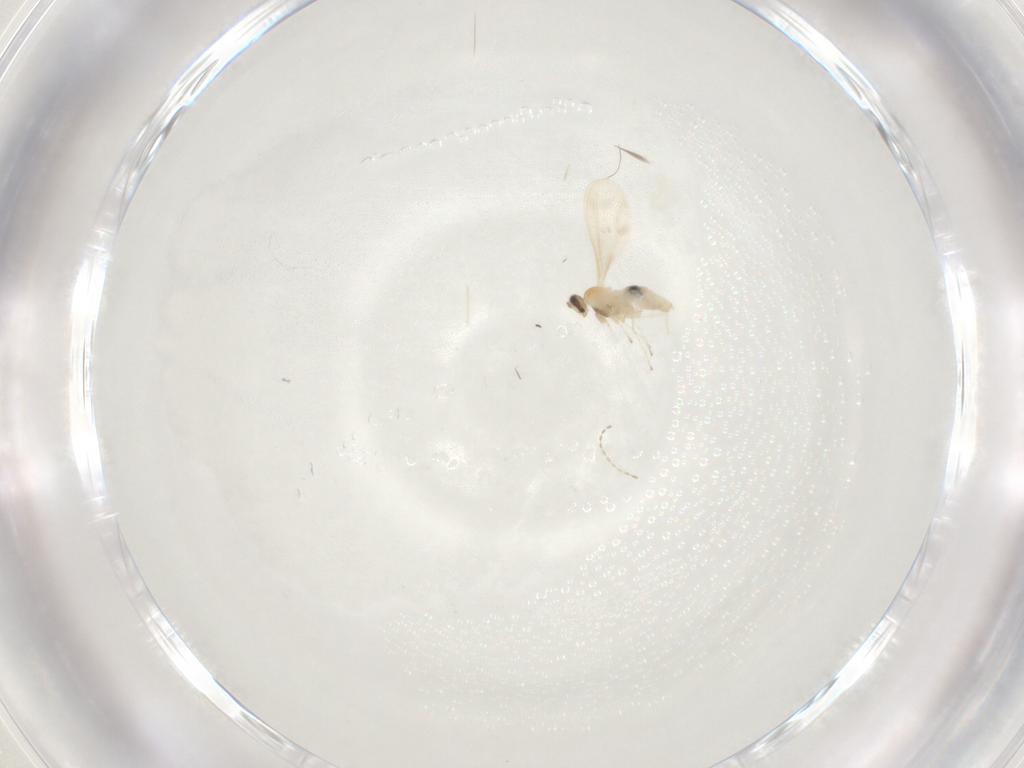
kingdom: Animalia
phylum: Arthropoda
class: Insecta
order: Diptera
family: Cecidomyiidae
